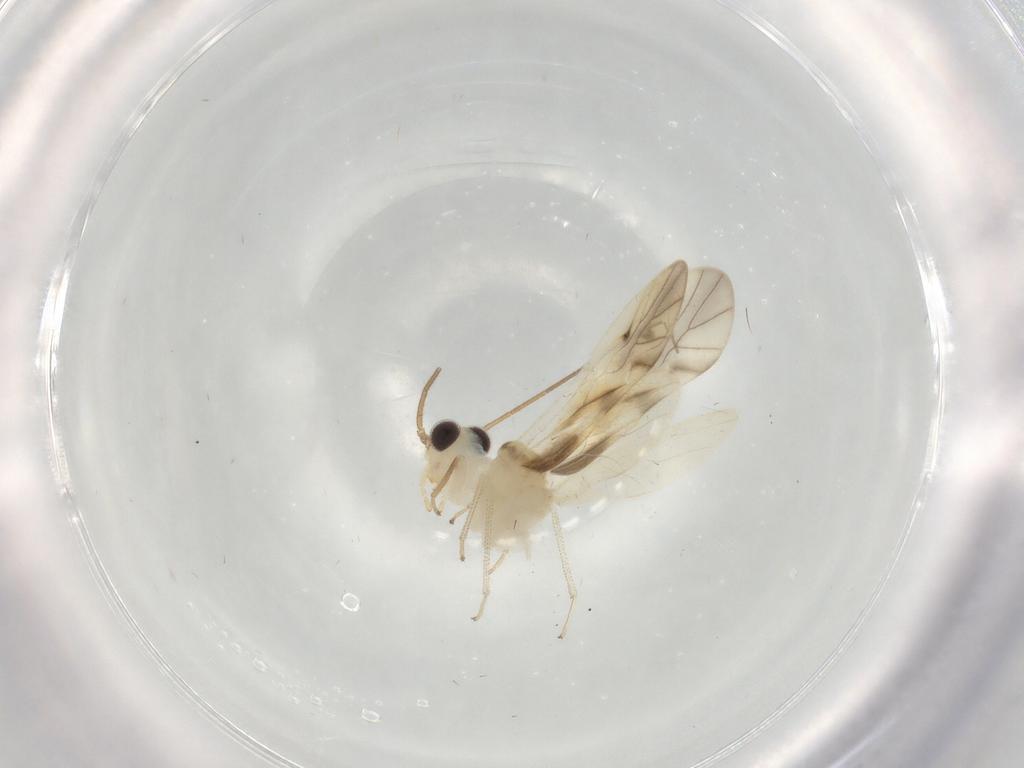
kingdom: Animalia
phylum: Arthropoda
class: Insecta
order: Psocodea
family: Caeciliusidae
